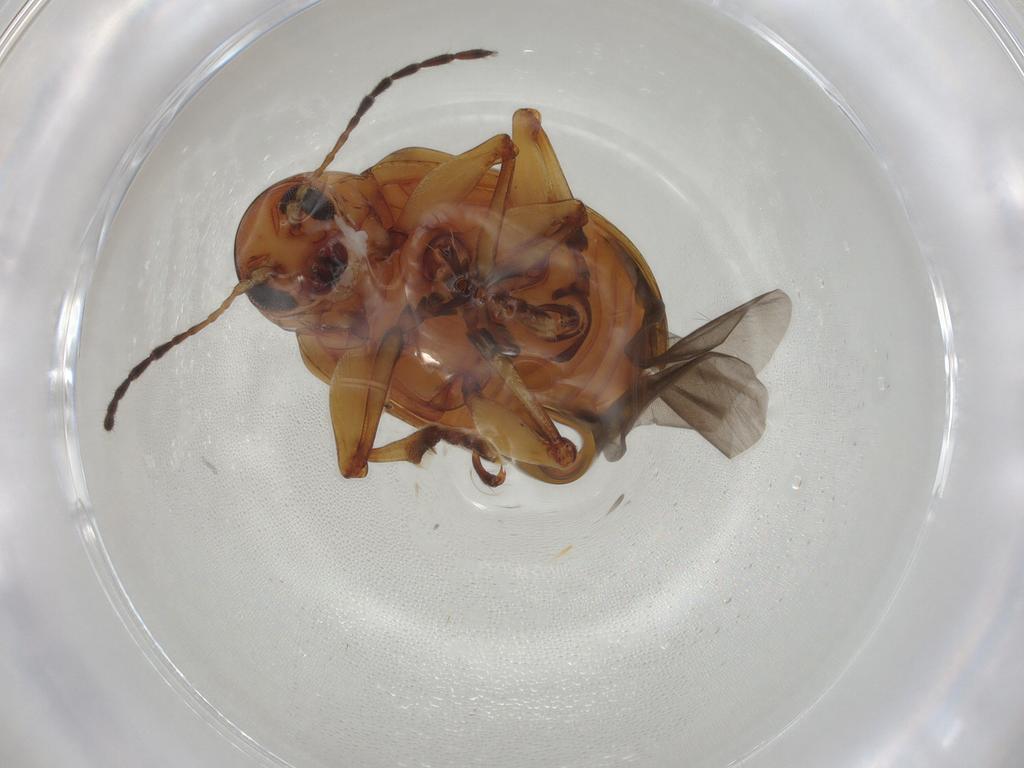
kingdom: Animalia
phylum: Arthropoda
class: Insecta
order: Coleoptera
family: Chrysomelidae
